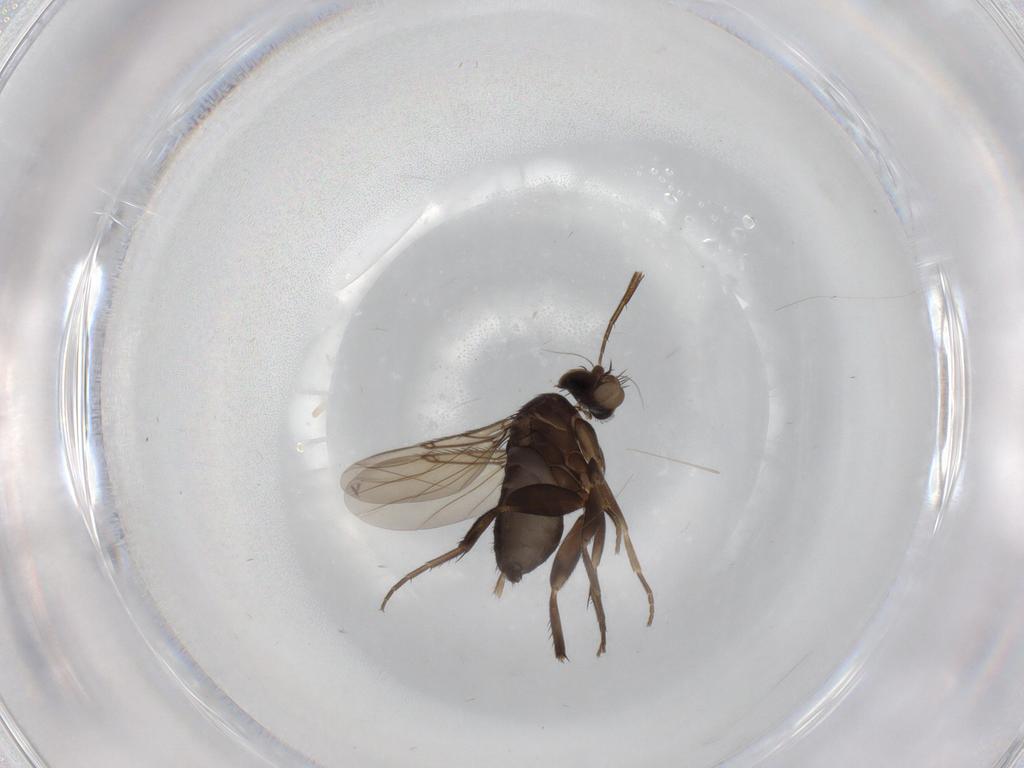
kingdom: Animalia
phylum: Arthropoda
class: Insecta
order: Diptera
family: Phoridae
